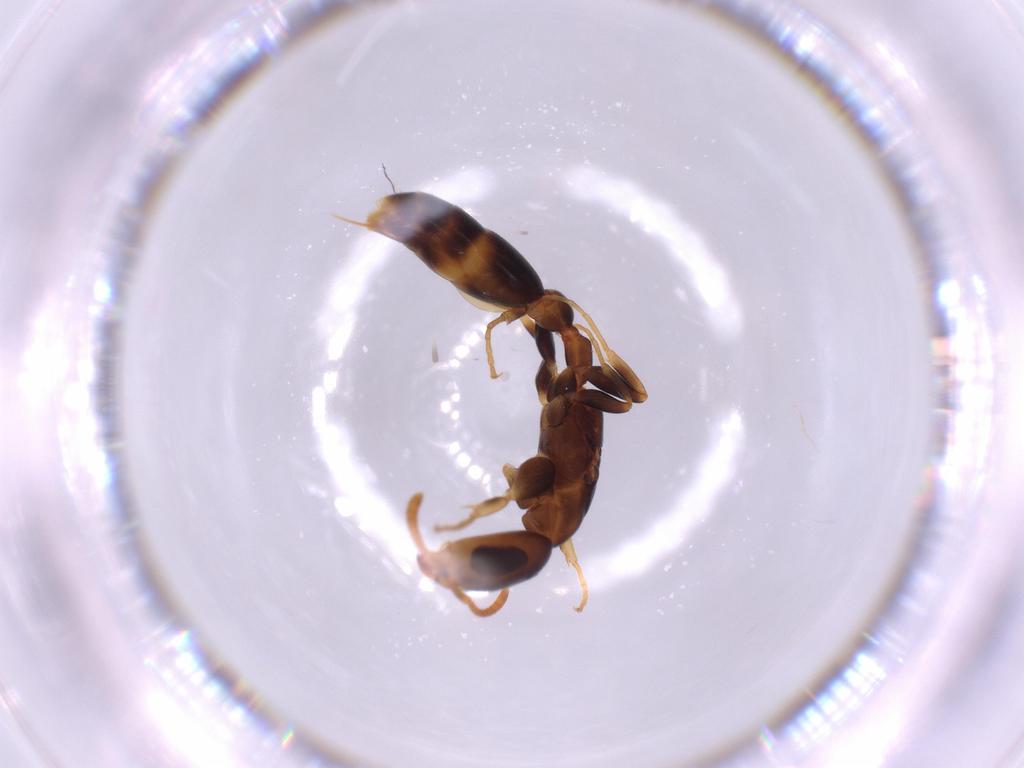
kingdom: Animalia
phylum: Arthropoda
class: Insecta
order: Hymenoptera
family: Formicidae
